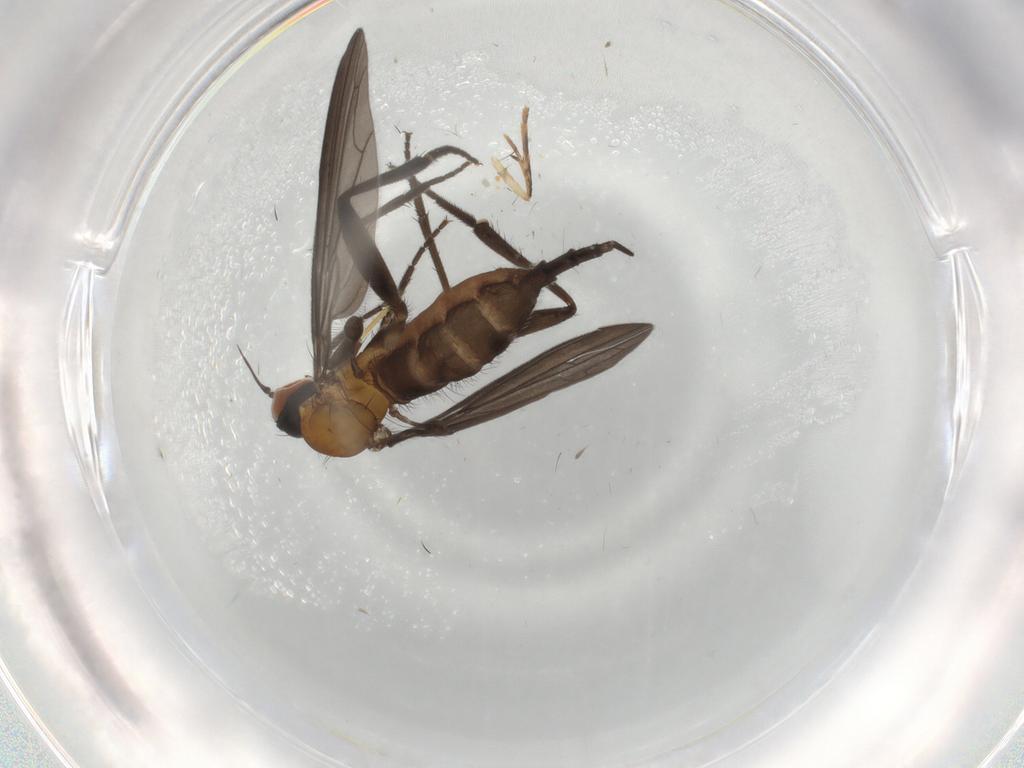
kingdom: Animalia
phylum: Arthropoda
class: Insecta
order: Diptera
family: Empididae
